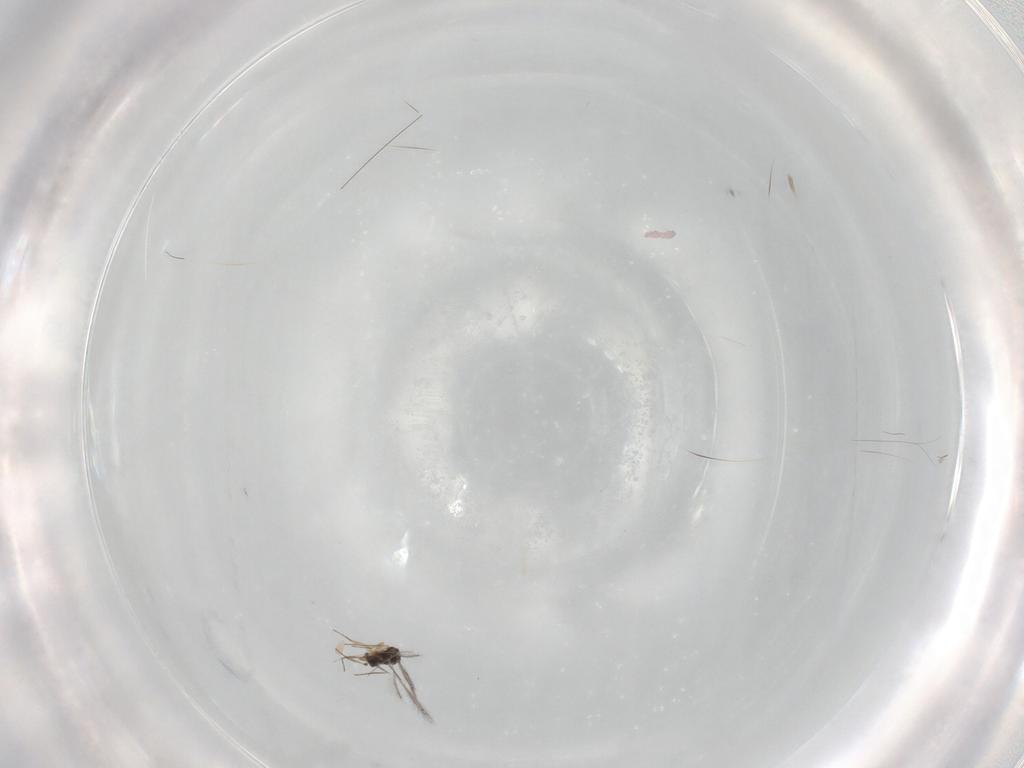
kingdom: Animalia
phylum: Arthropoda
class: Insecta
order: Hymenoptera
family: Mymaridae
